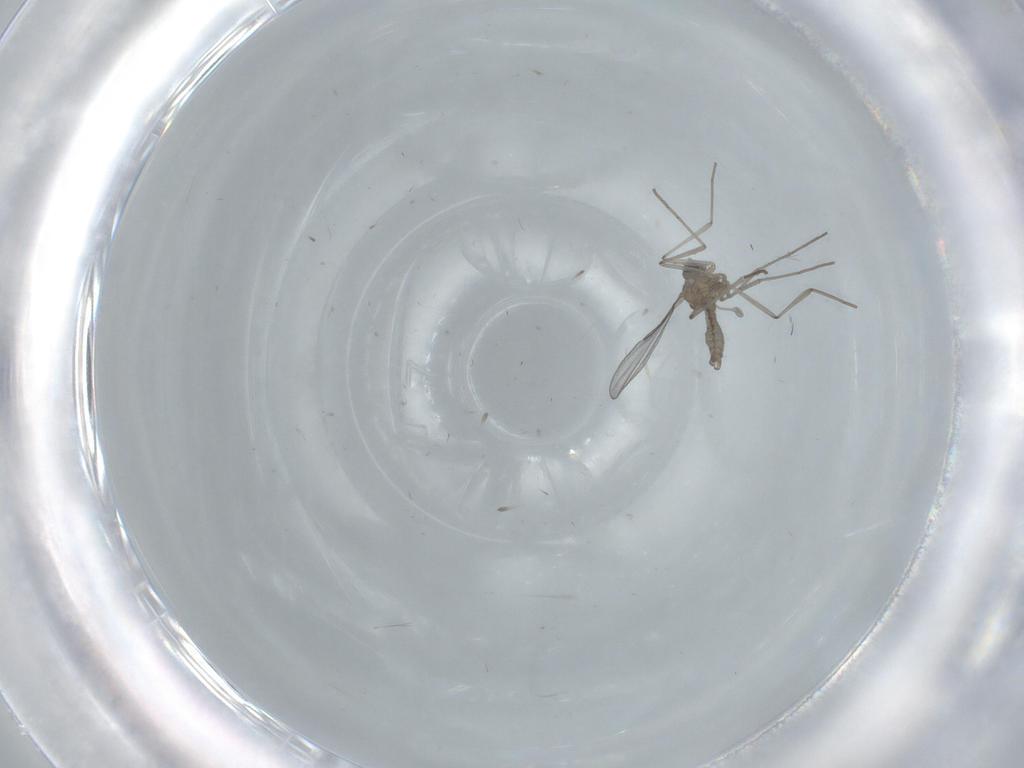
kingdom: Animalia
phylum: Arthropoda
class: Insecta
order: Diptera
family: Cecidomyiidae
